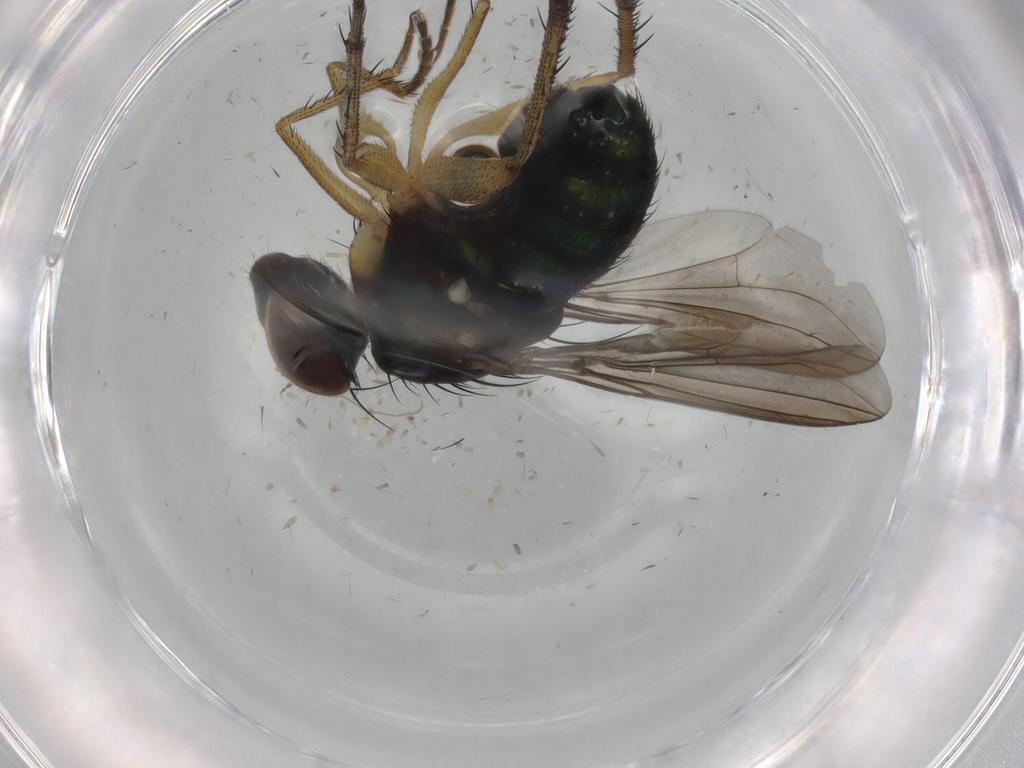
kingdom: Animalia
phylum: Arthropoda
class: Insecta
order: Diptera
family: Dolichopodidae
